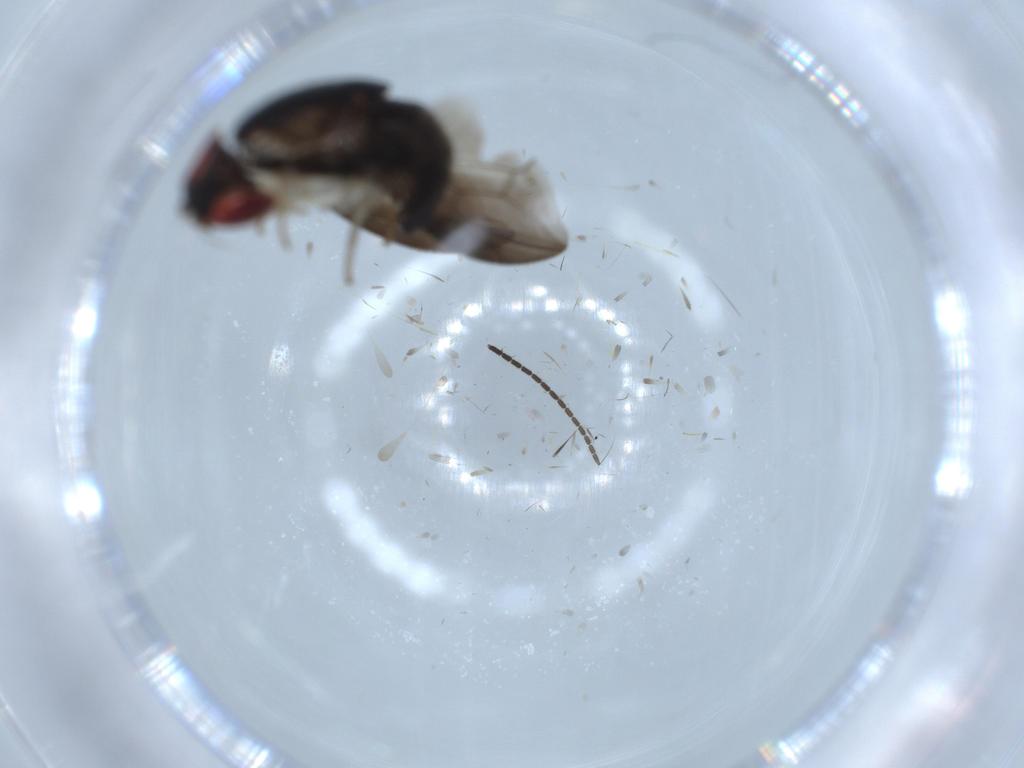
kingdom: Animalia
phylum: Arthropoda
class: Insecta
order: Diptera
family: Drosophilidae
